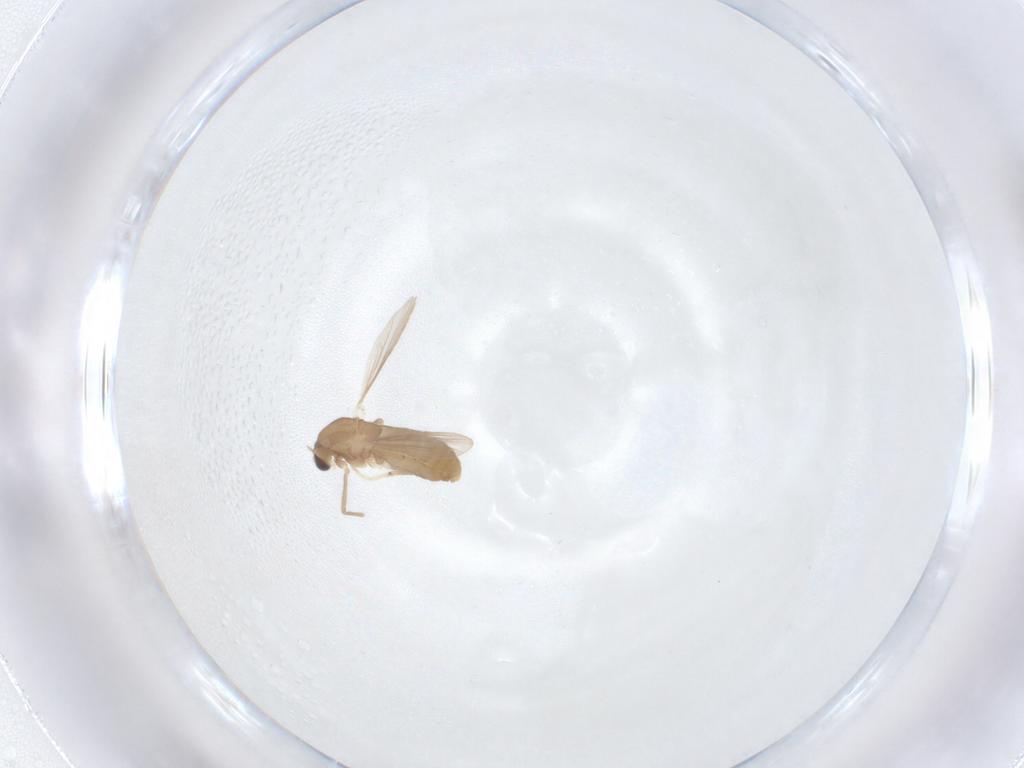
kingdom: Animalia
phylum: Arthropoda
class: Insecta
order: Diptera
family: Chironomidae
